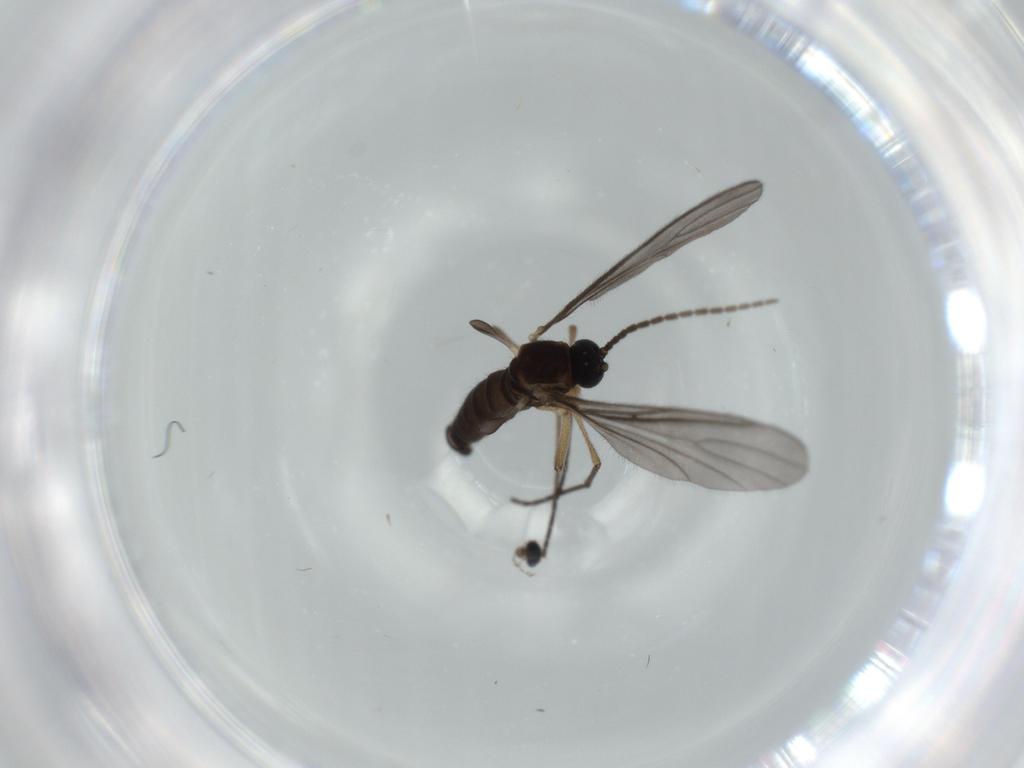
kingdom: Animalia
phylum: Arthropoda
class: Insecta
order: Diptera
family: Sciaridae
